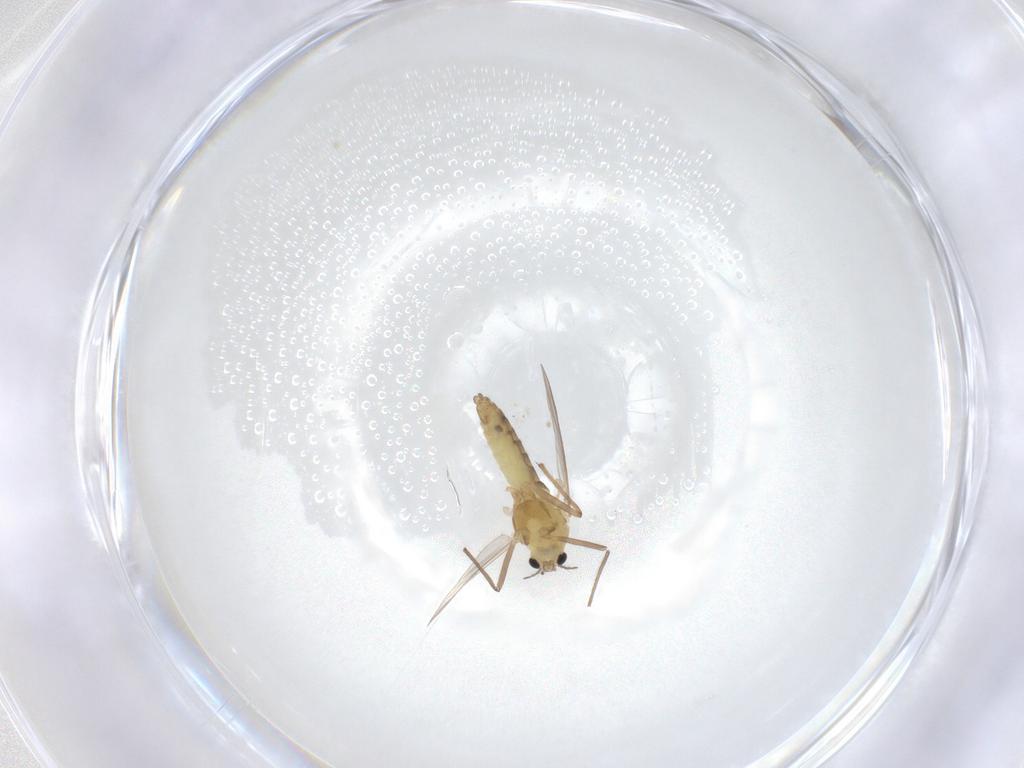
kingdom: Animalia
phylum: Arthropoda
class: Insecta
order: Diptera
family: Chironomidae
